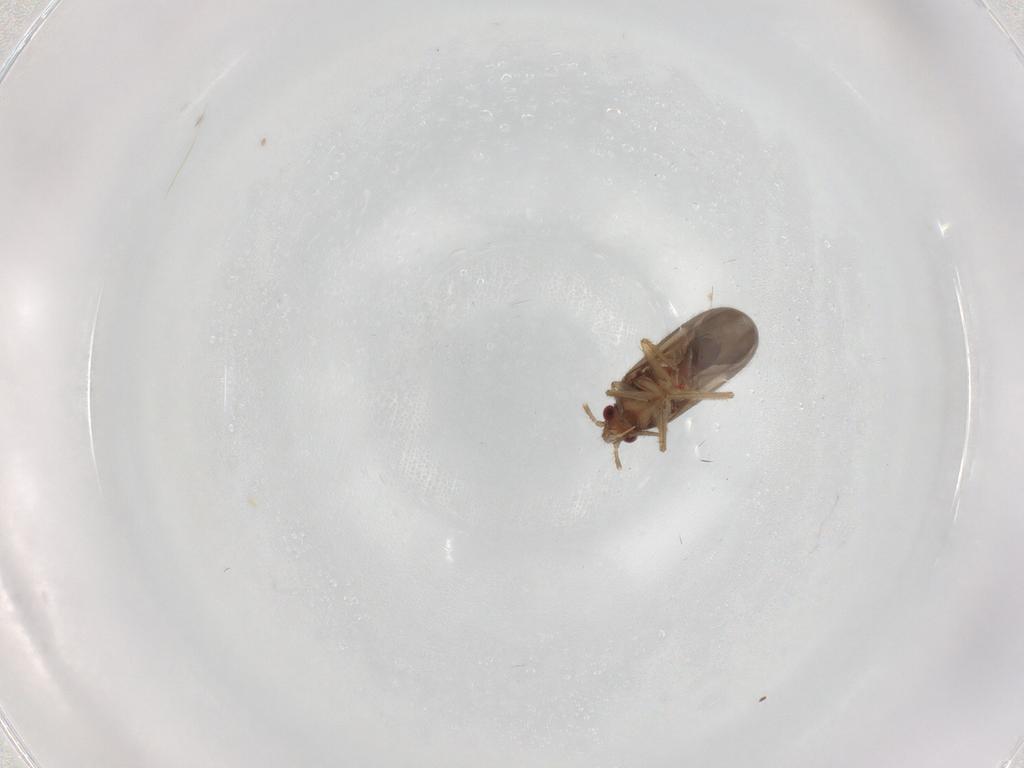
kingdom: Animalia
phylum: Arthropoda
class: Insecta
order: Hemiptera
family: Ceratocombidae
